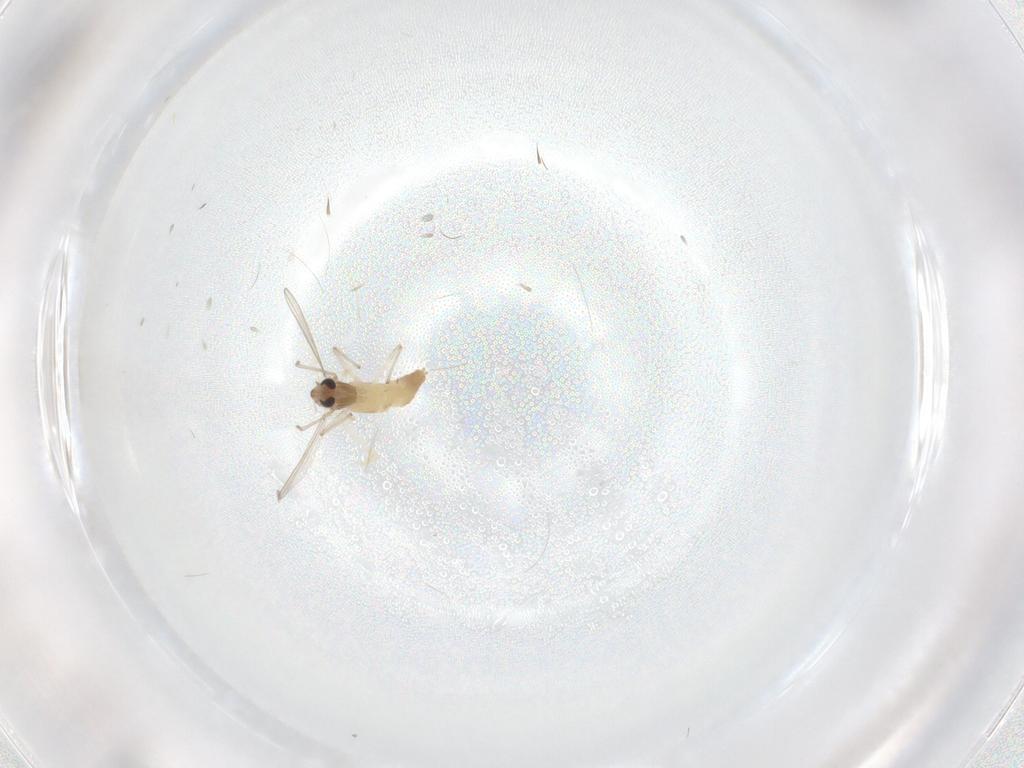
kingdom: Animalia
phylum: Arthropoda
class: Insecta
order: Diptera
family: Chironomidae
